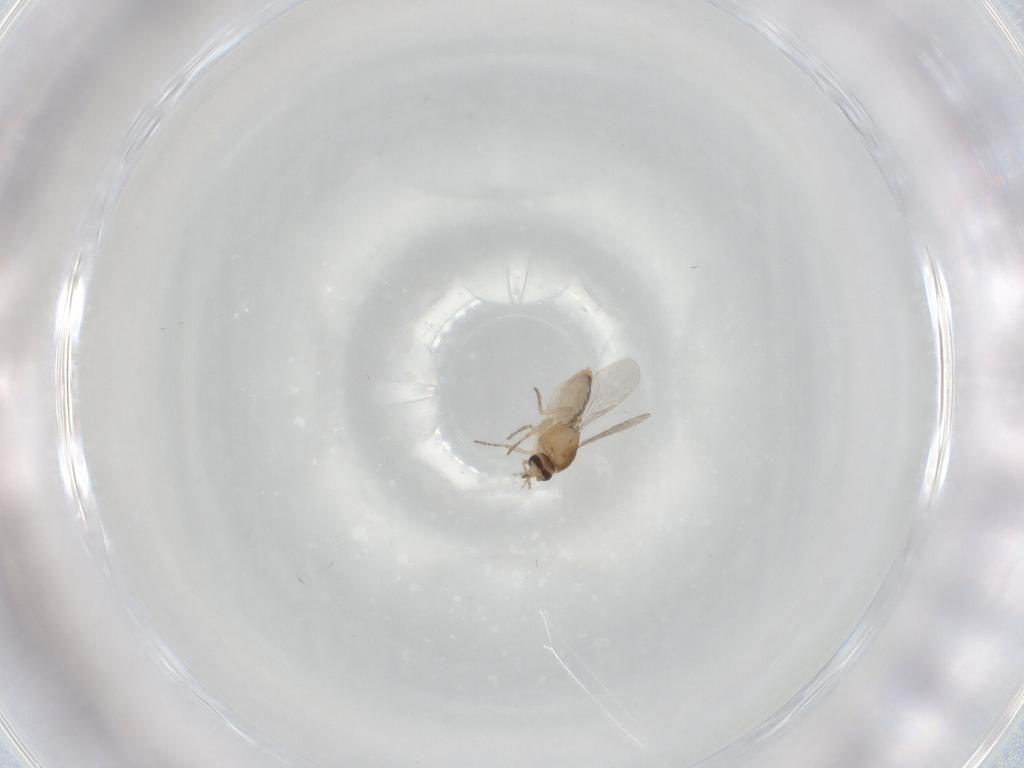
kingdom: Animalia
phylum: Arthropoda
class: Insecta
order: Diptera
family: Ceratopogonidae
